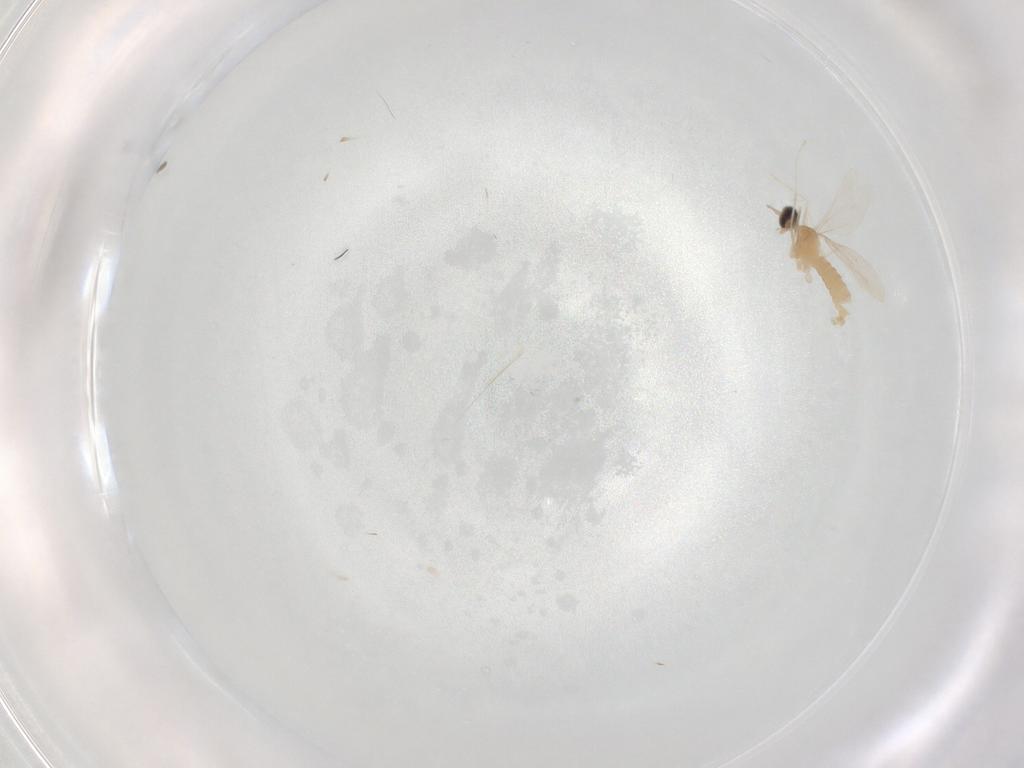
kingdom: Animalia
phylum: Arthropoda
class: Insecta
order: Diptera
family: Cecidomyiidae
